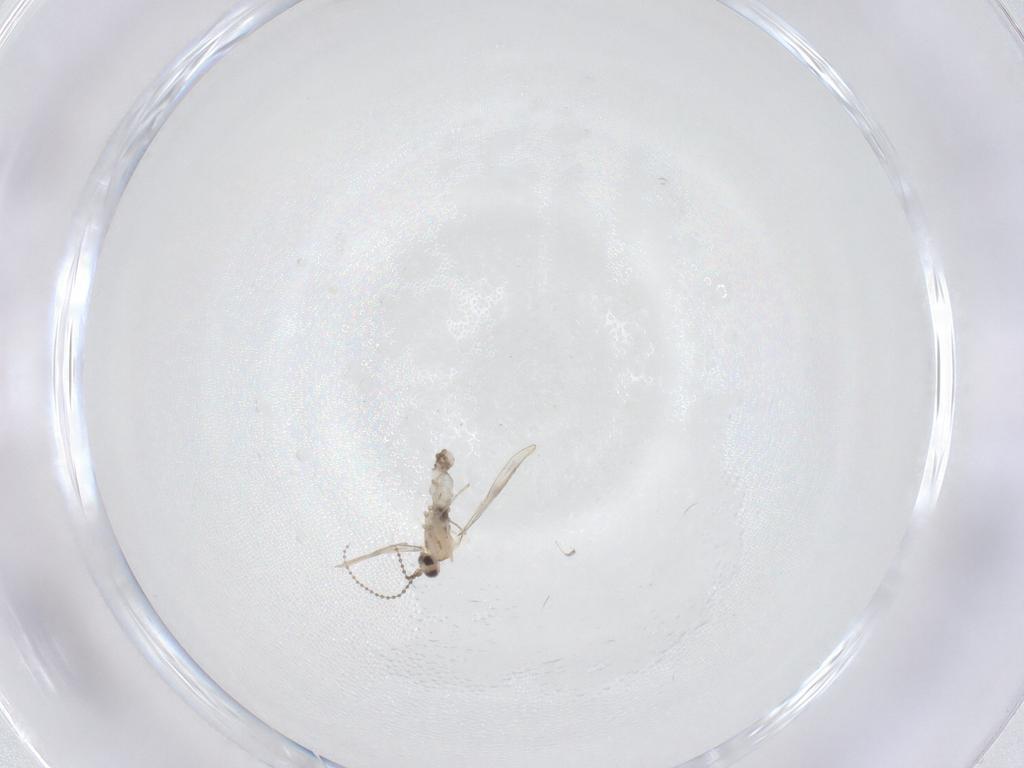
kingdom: Animalia
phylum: Arthropoda
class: Insecta
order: Diptera
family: Cecidomyiidae
